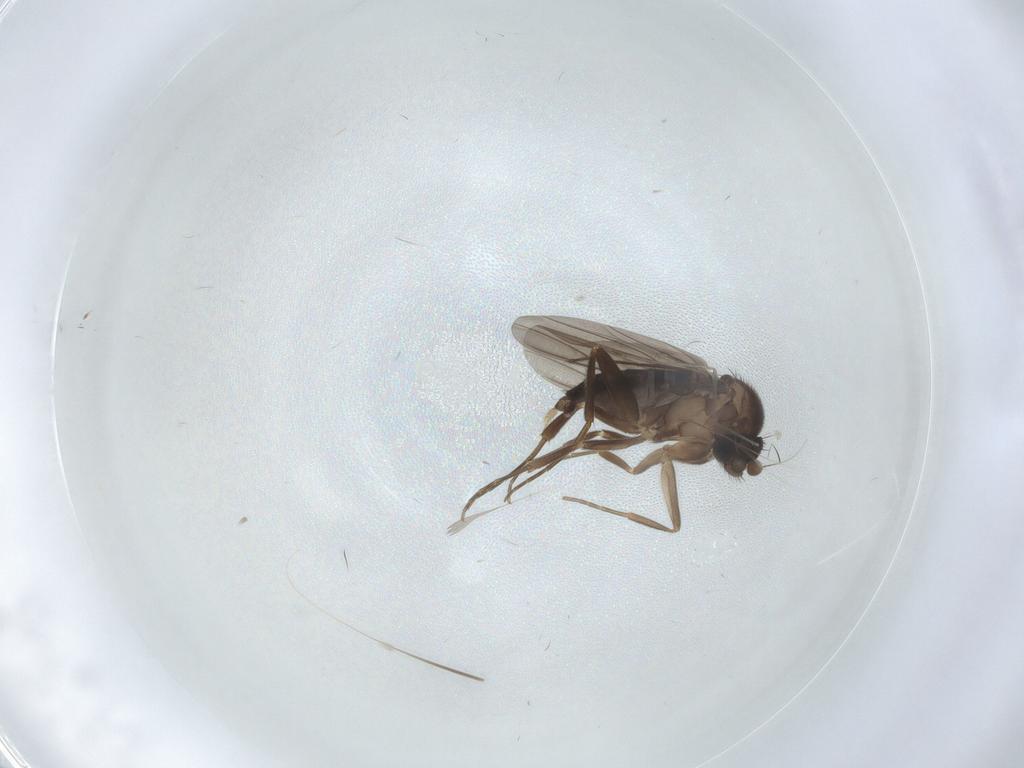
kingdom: Animalia
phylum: Arthropoda
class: Insecta
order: Diptera
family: Phoridae
